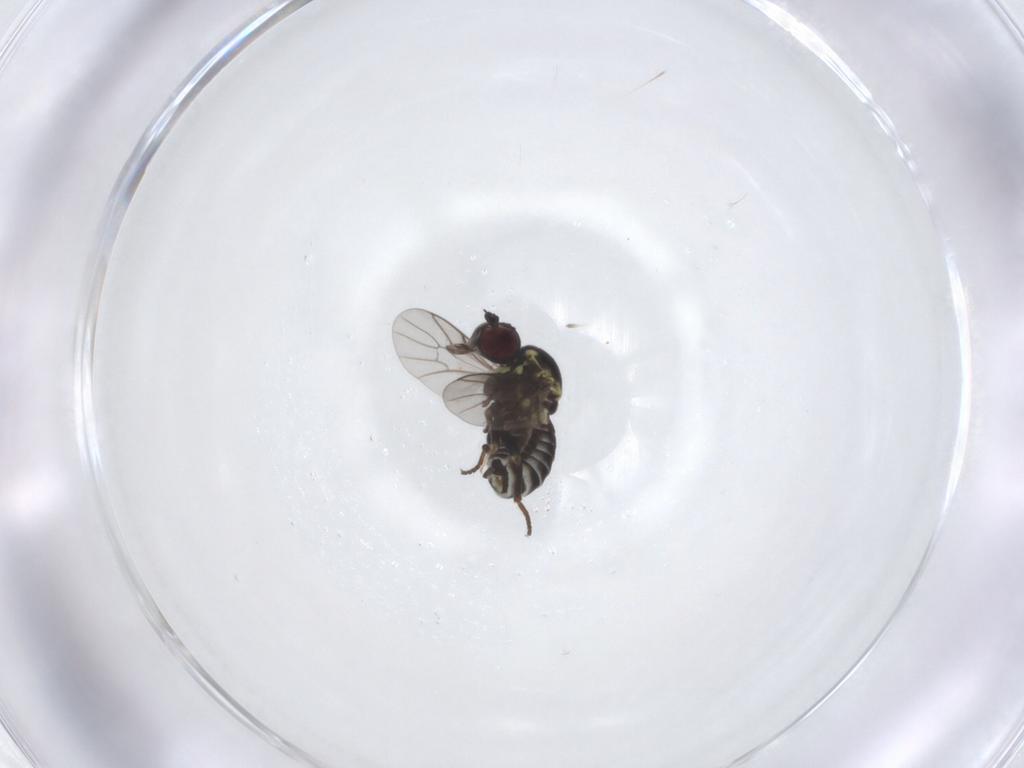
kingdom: Animalia
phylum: Arthropoda
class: Insecta
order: Diptera
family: Bombyliidae
